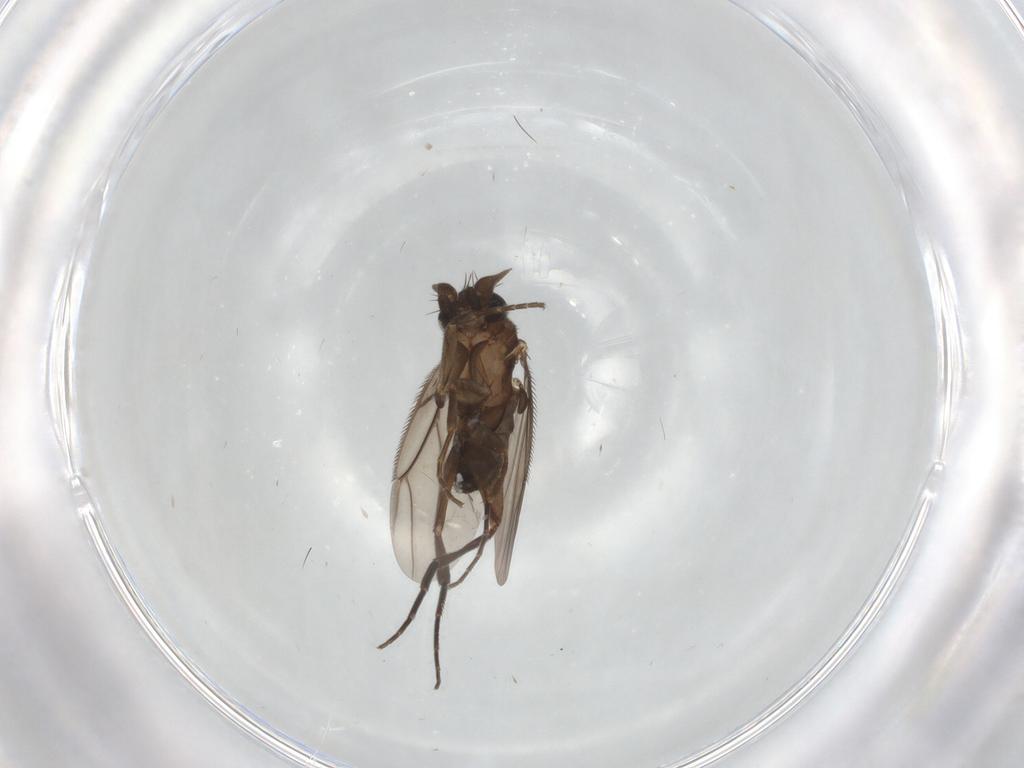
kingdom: Animalia
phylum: Arthropoda
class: Insecta
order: Diptera
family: Phoridae
